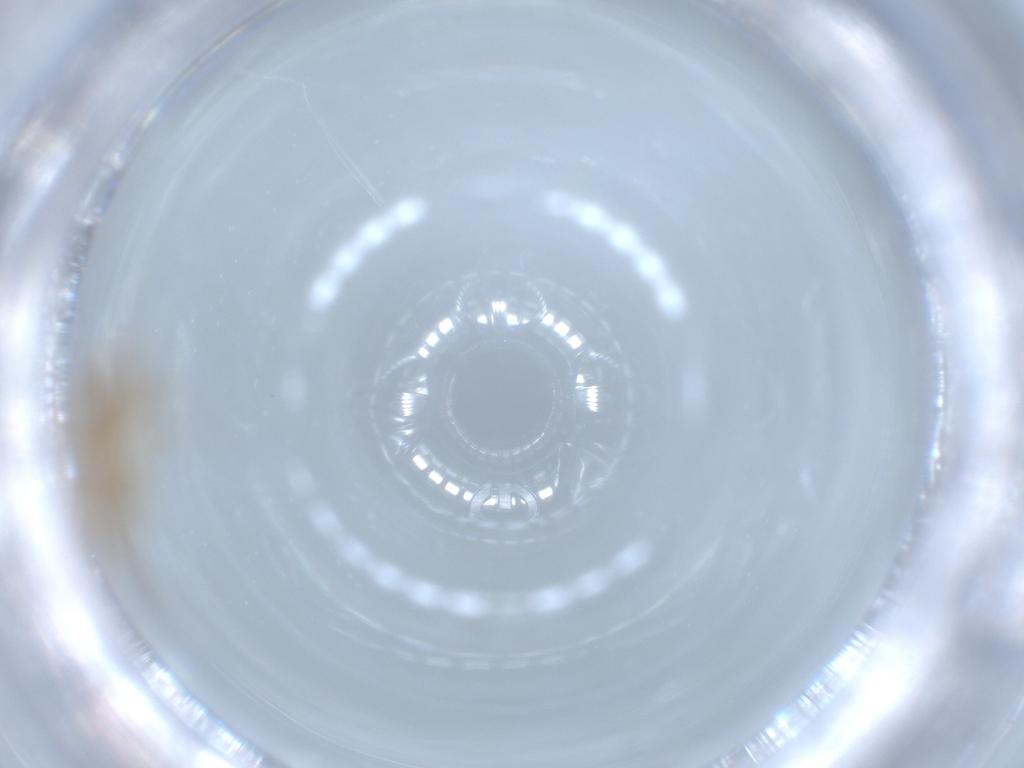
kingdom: Animalia
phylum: Arthropoda
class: Insecta
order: Hymenoptera
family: Formicidae
